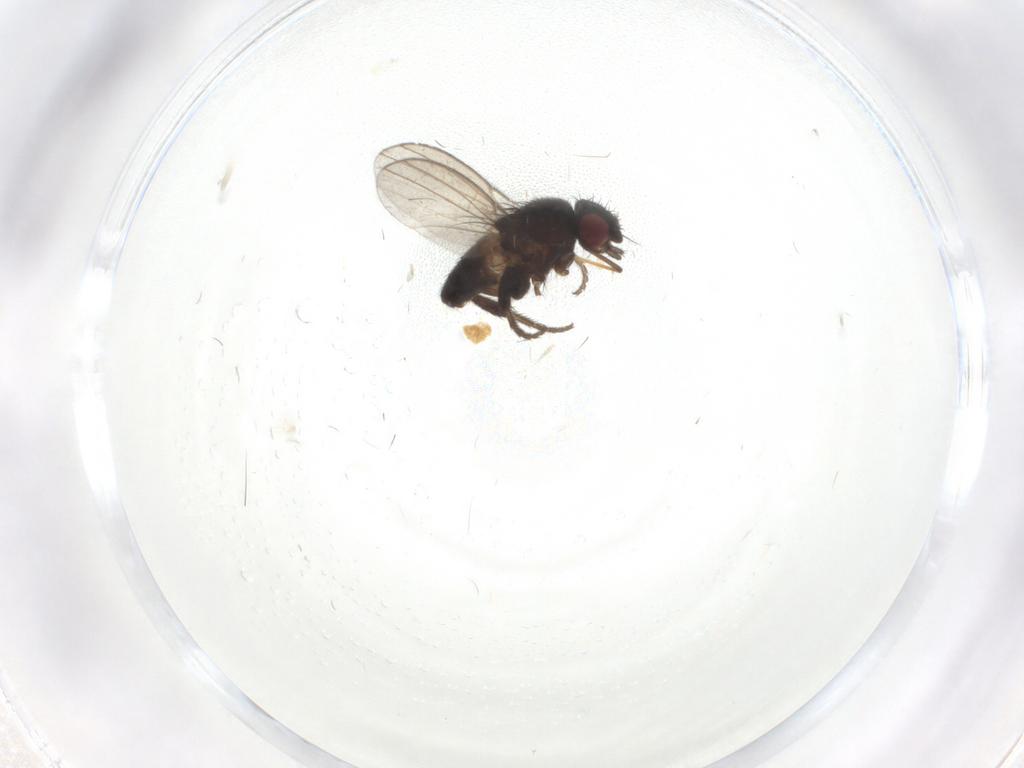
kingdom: Animalia
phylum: Arthropoda
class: Insecta
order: Diptera
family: Milichiidae
